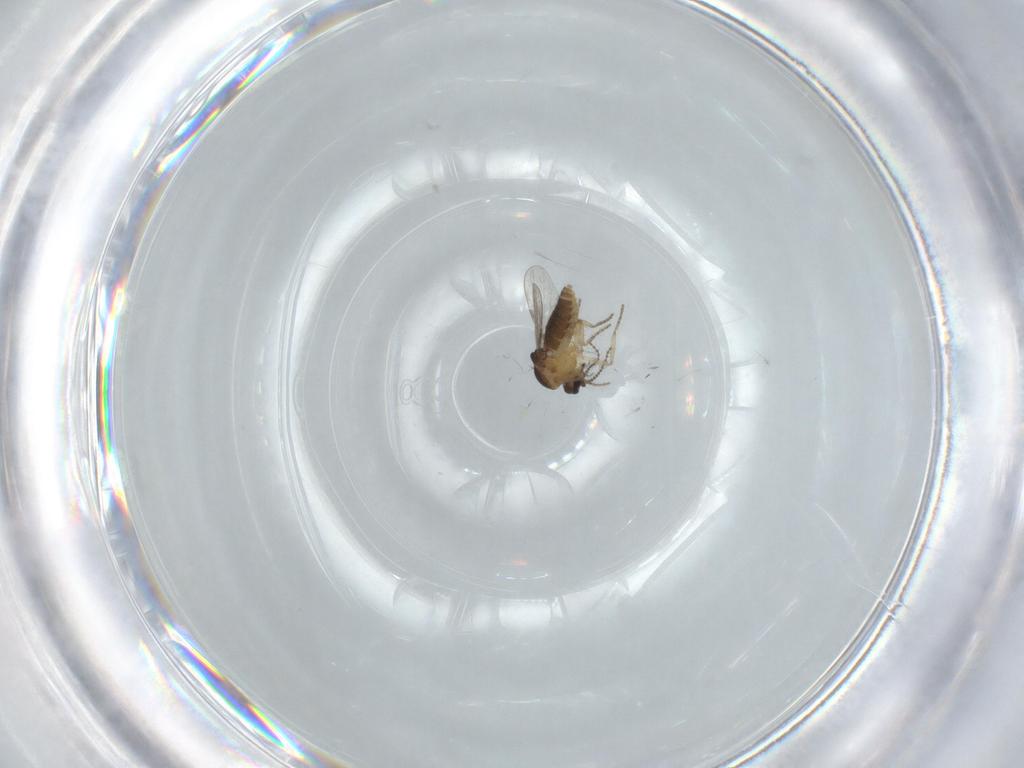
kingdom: Animalia
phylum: Arthropoda
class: Insecta
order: Diptera
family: Ceratopogonidae
